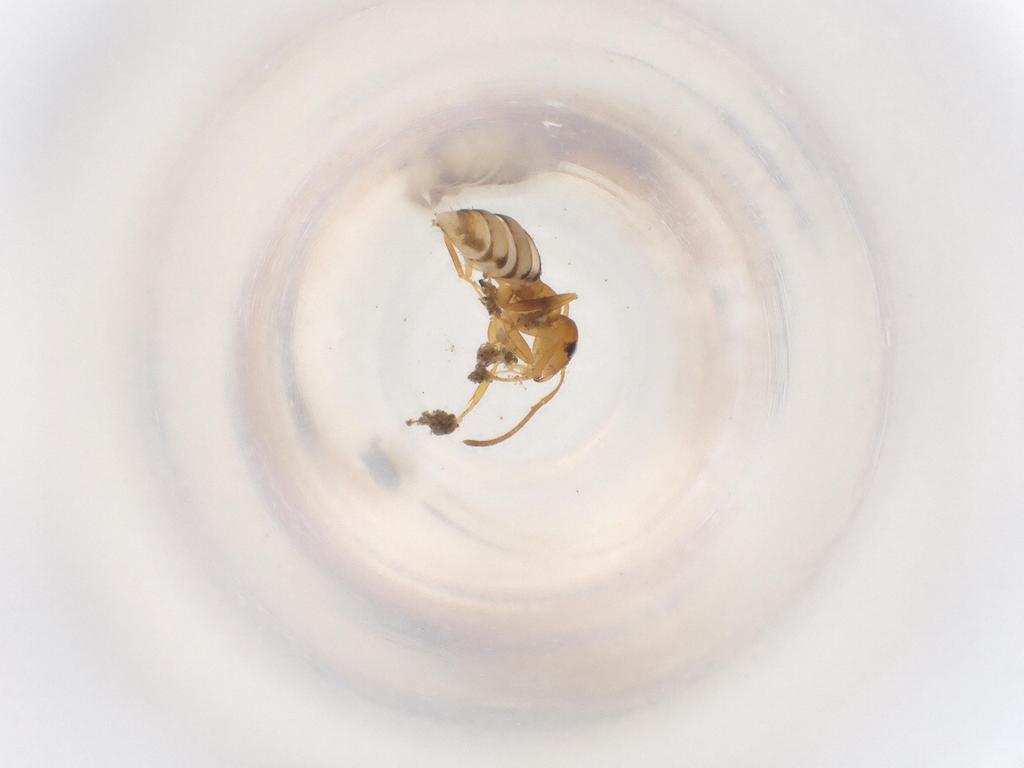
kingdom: Animalia
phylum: Arthropoda
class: Insecta
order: Hymenoptera
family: Formicidae
